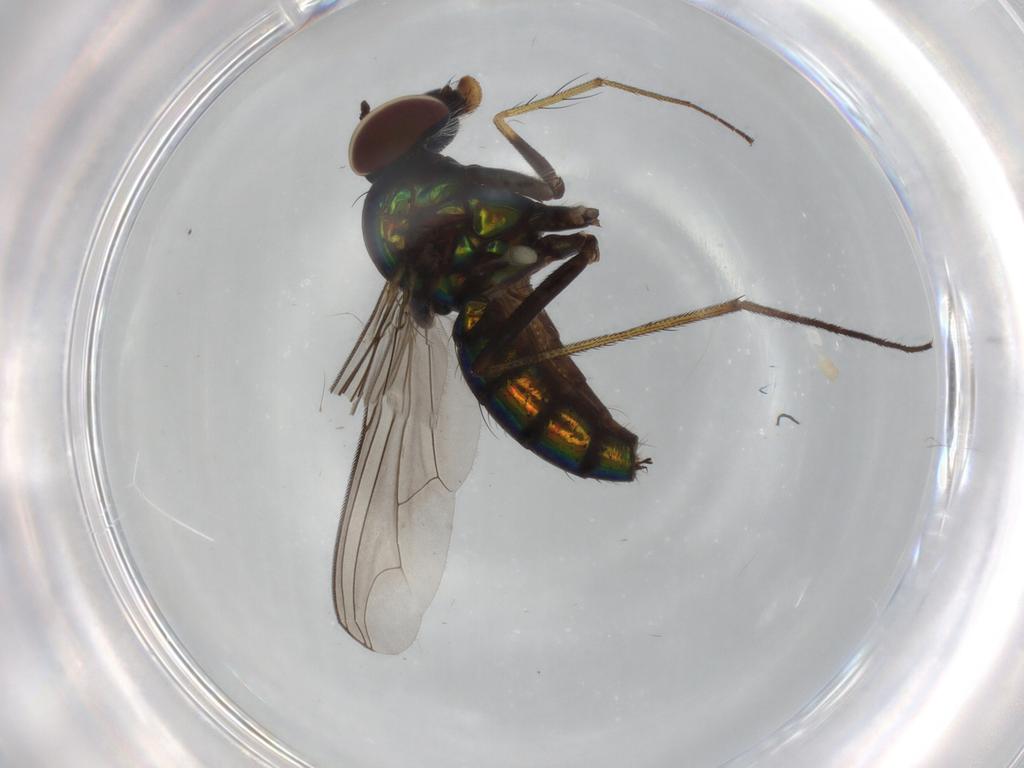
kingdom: Animalia
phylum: Arthropoda
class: Insecta
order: Diptera
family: Dolichopodidae
